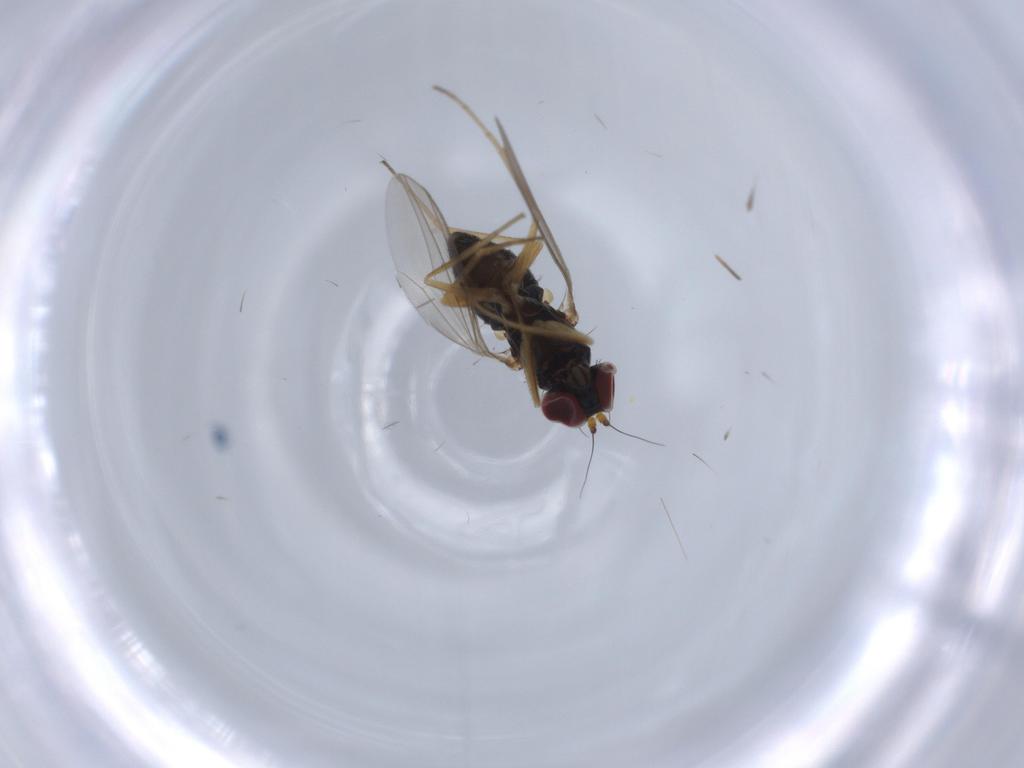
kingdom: Animalia
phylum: Arthropoda
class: Insecta
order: Diptera
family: Dolichopodidae
